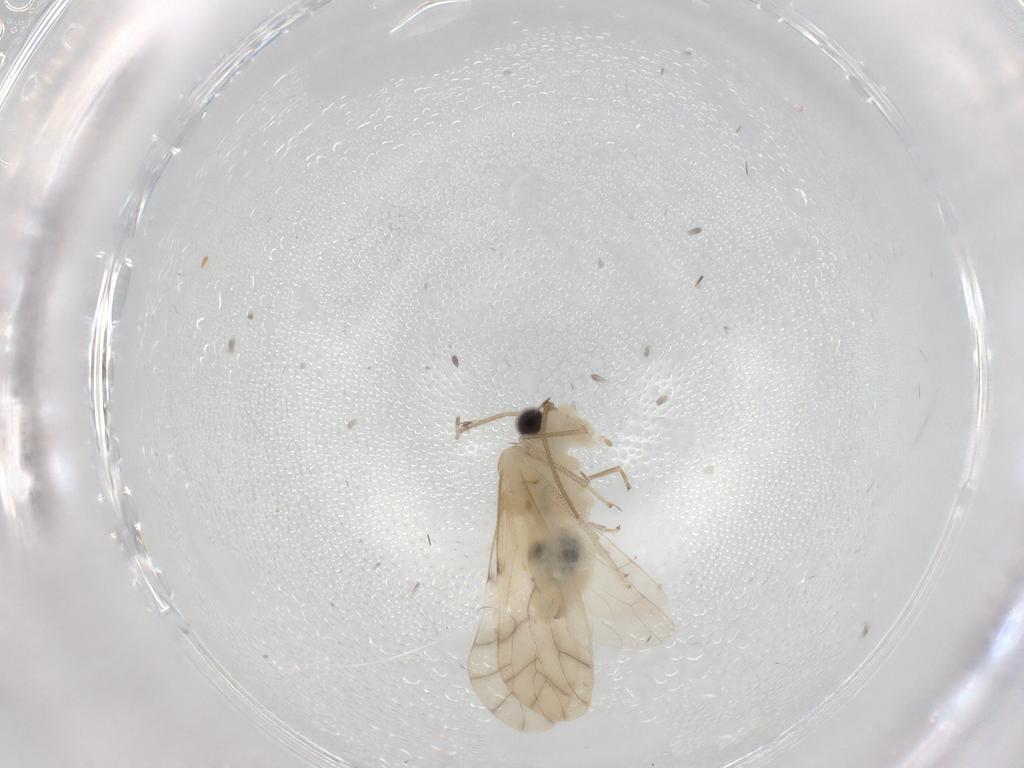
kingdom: Animalia
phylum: Arthropoda
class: Insecta
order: Psocodea
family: Caeciliusidae
